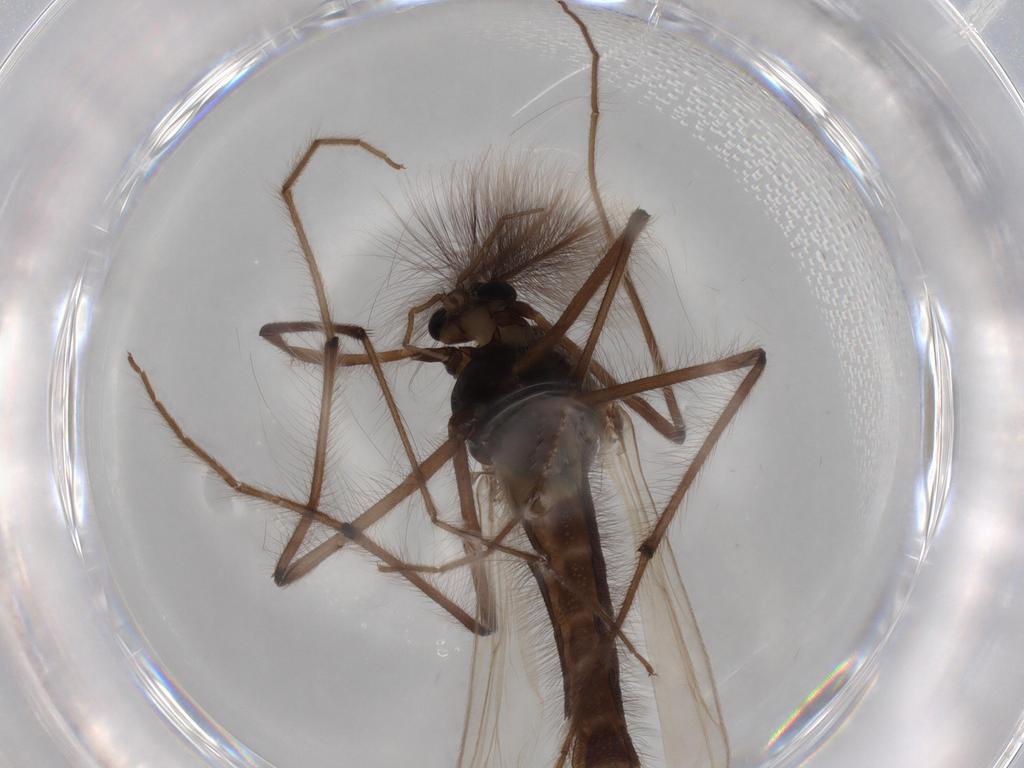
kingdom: Animalia
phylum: Arthropoda
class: Insecta
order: Diptera
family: Chironomidae
